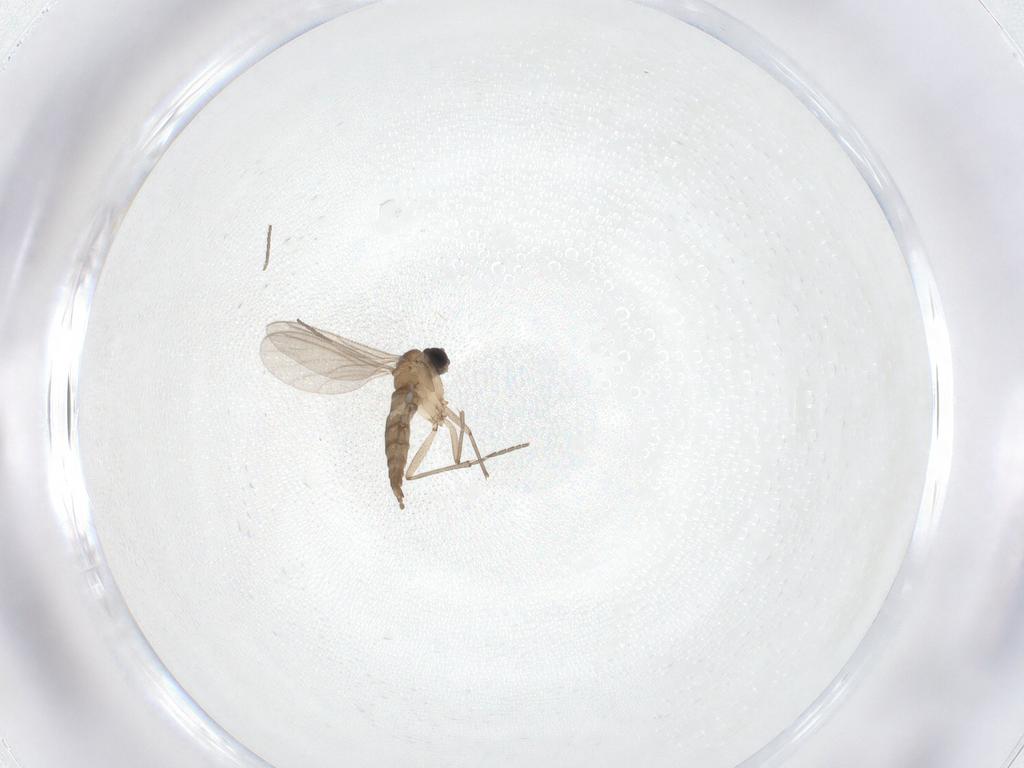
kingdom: Animalia
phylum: Arthropoda
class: Insecta
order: Diptera
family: Sciaridae
